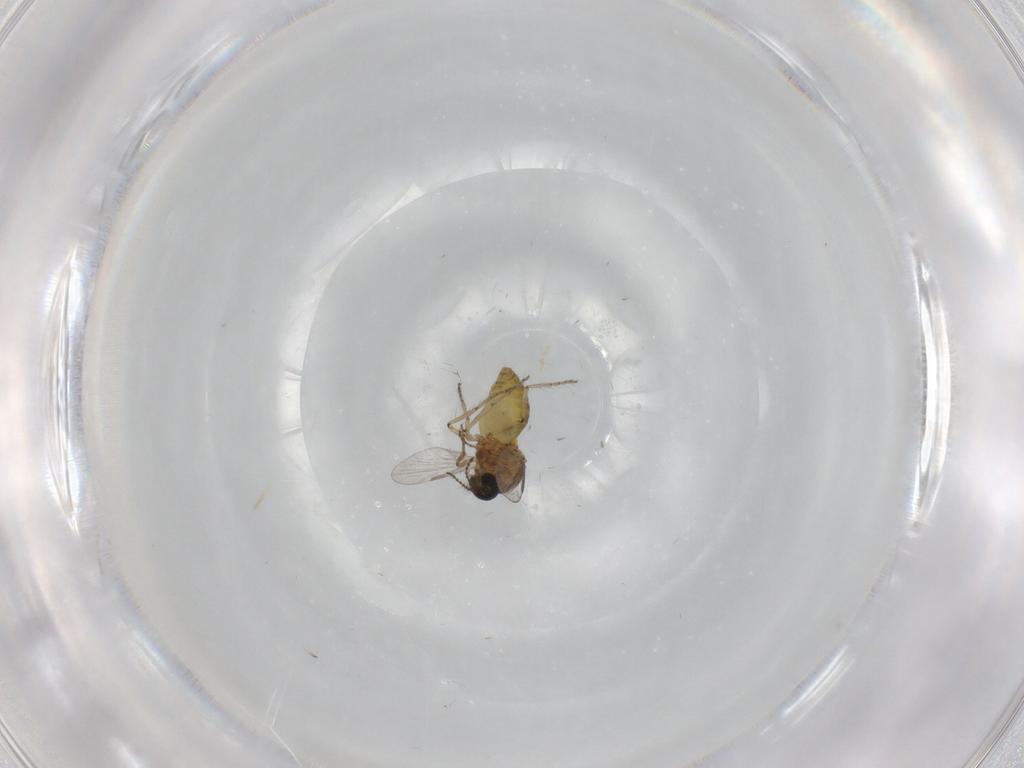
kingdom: Animalia
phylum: Arthropoda
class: Insecta
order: Diptera
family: Ceratopogonidae
